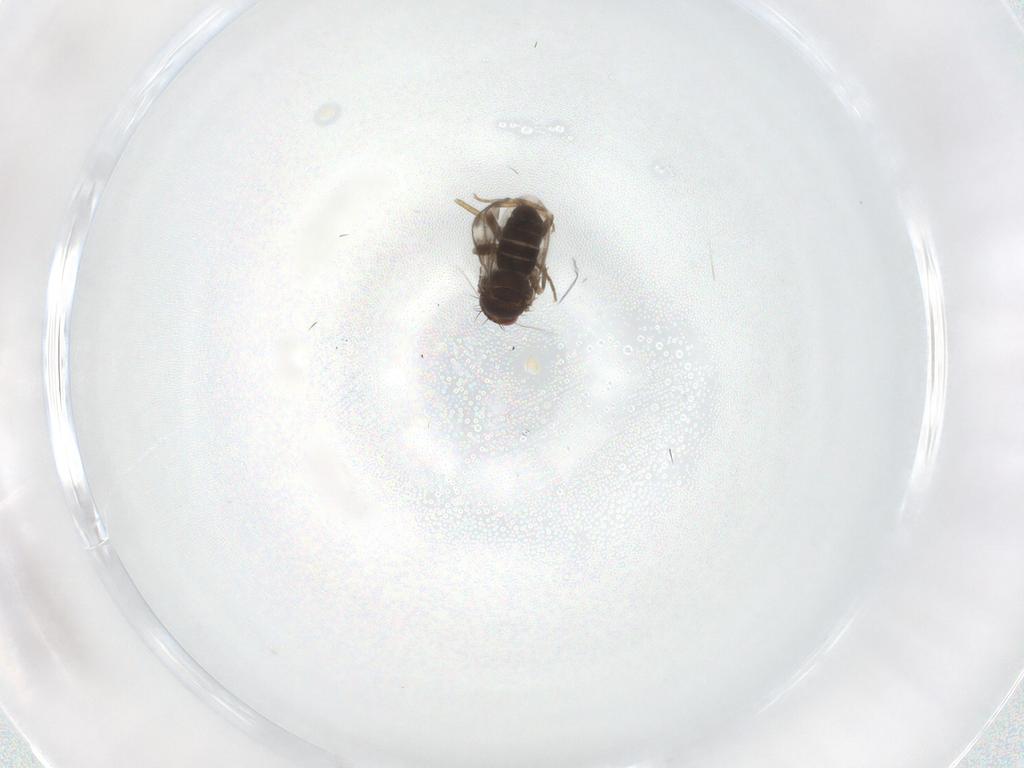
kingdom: Animalia
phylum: Arthropoda
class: Insecta
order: Diptera
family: Sphaeroceridae
